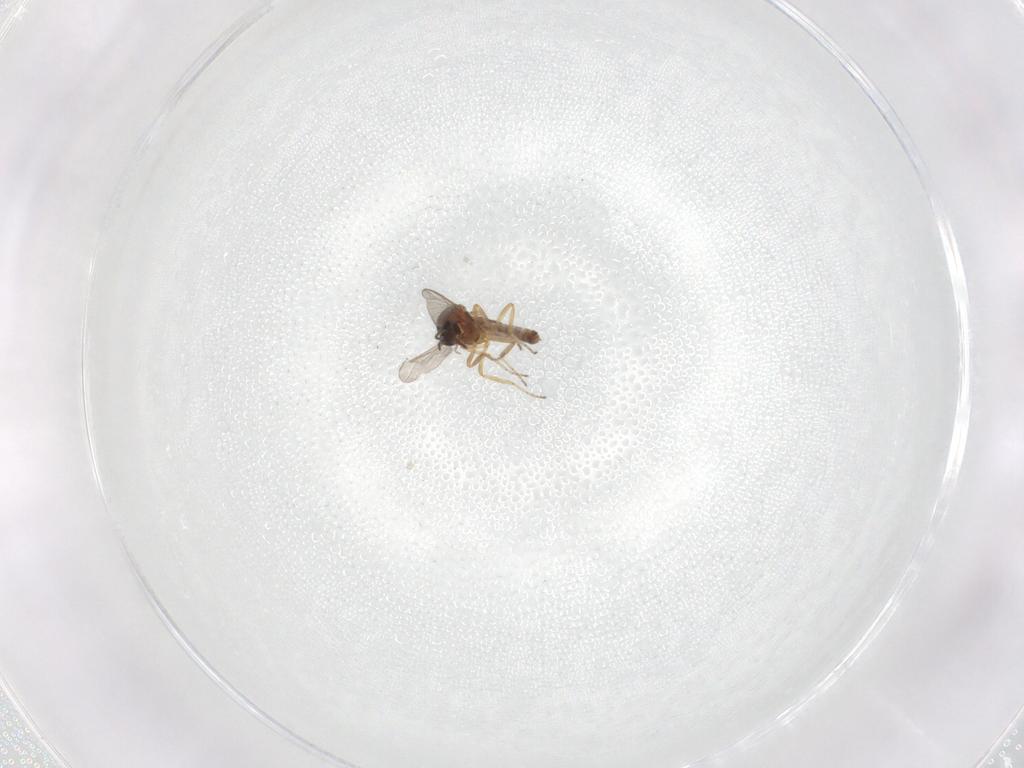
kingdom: Animalia
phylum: Arthropoda
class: Insecta
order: Diptera
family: Ceratopogonidae
